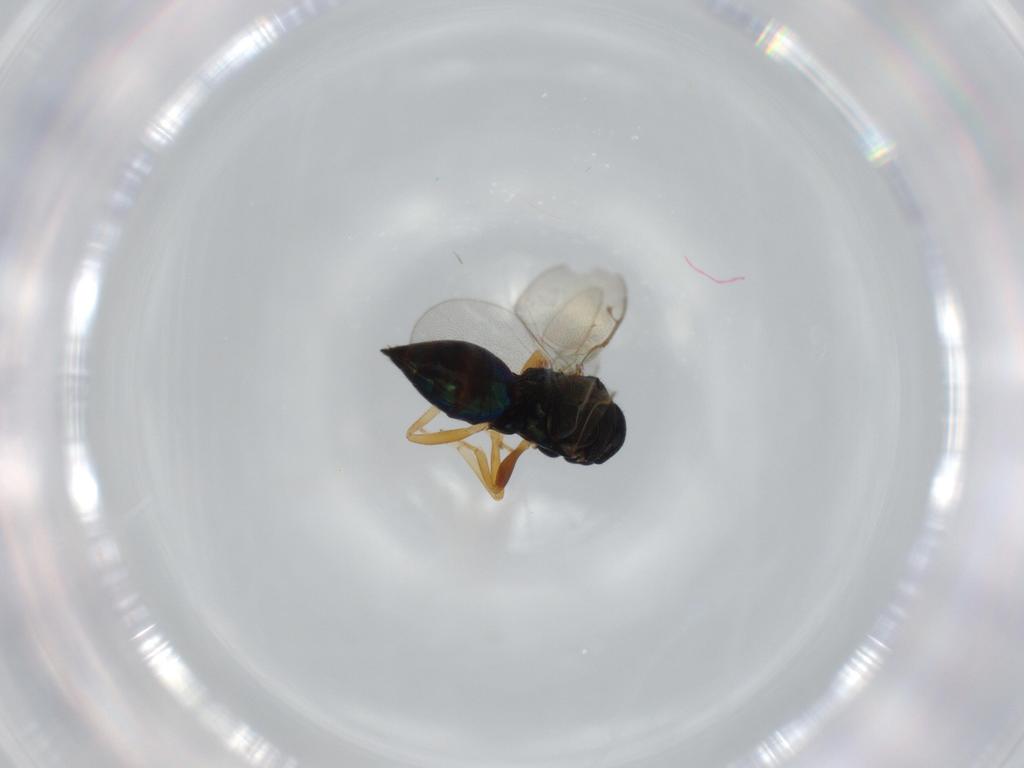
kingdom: Animalia
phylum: Arthropoda
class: Insecta
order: Hymenoptera
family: Pteromalidae
